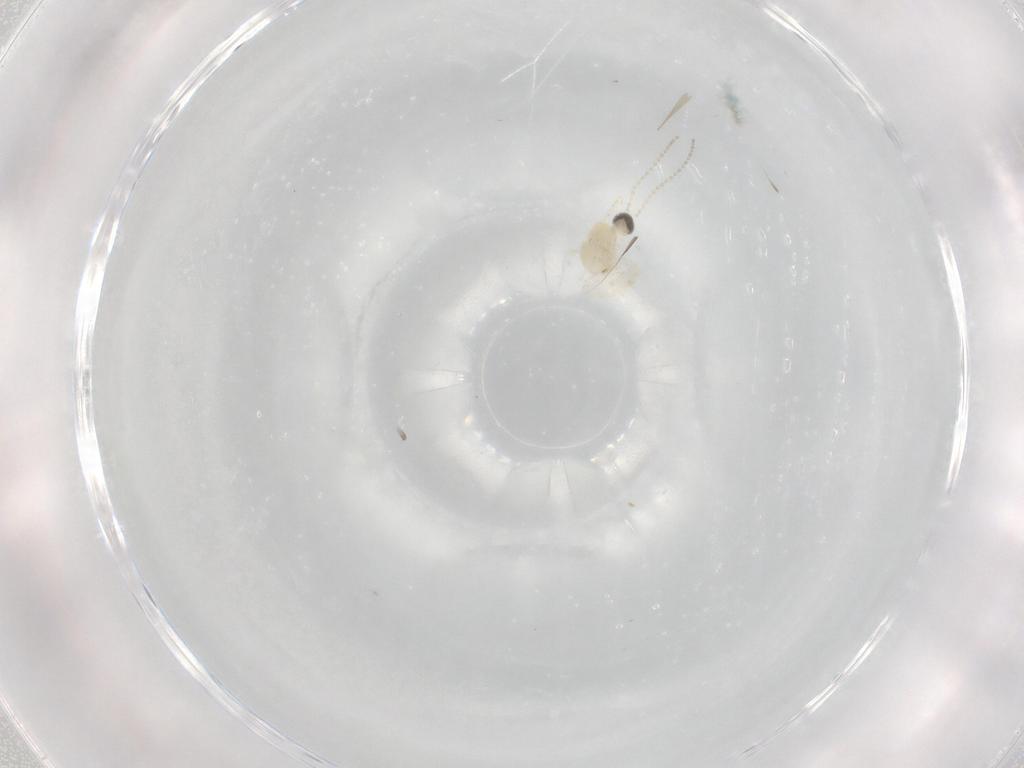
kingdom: Animalia
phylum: Arthropoda
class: Insecta
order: Diptera
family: Cecidomyiidae
